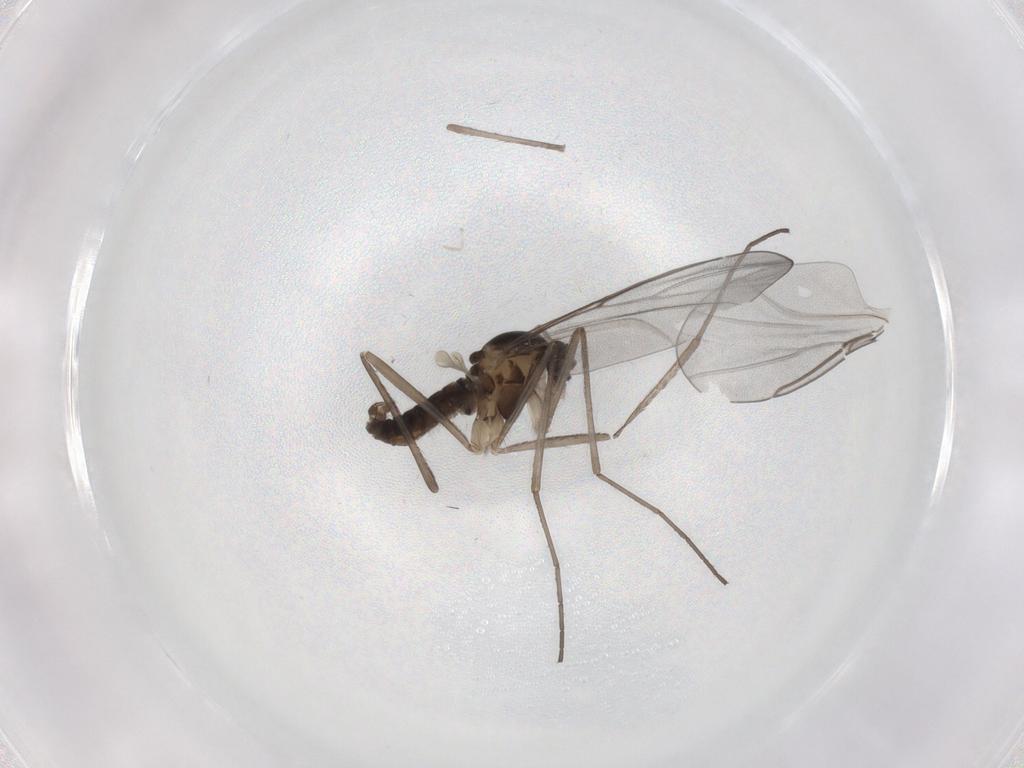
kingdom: Animalia
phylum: Arthropoda
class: Insecta
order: Diptera
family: Cecidomyiidae
